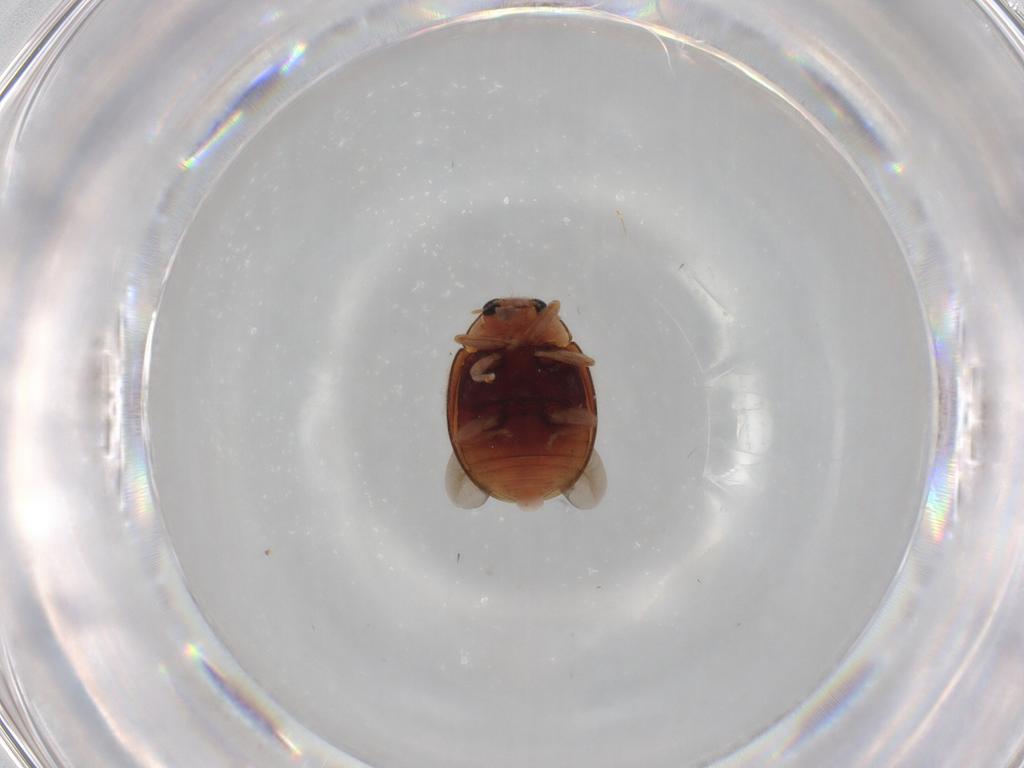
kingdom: Animalia
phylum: Arthropoda
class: Insecta
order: Coleoptera
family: Coccinellidae
